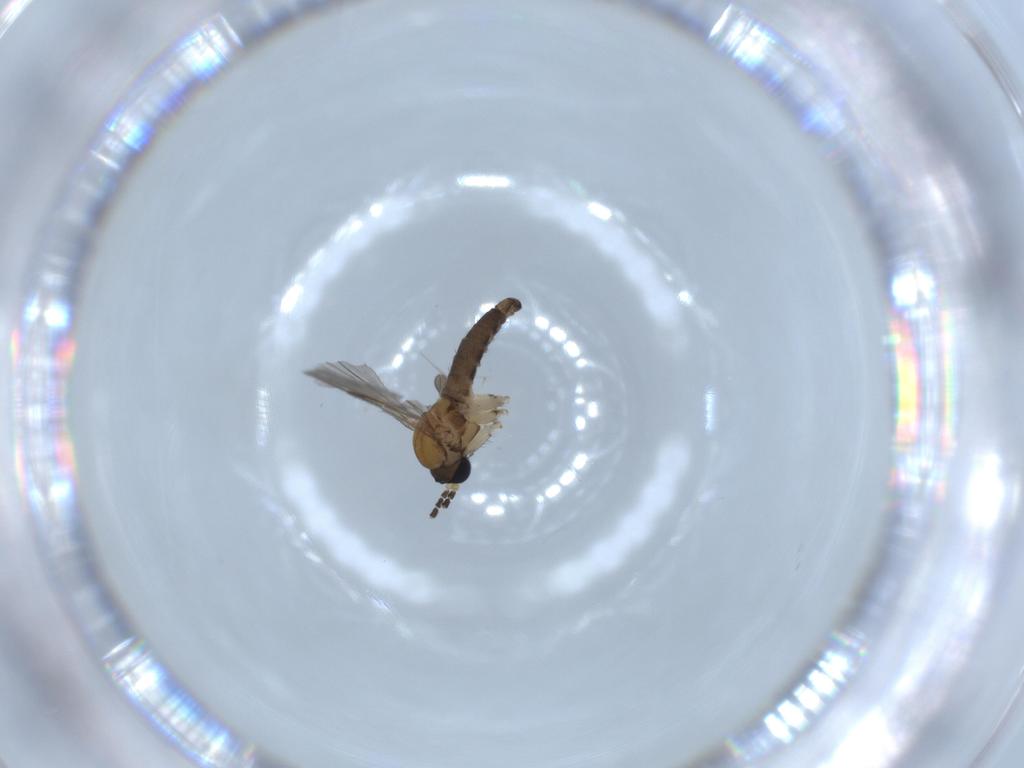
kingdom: Animalia
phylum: Arthropoda
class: Insecta
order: Diptera
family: Sciaridae
